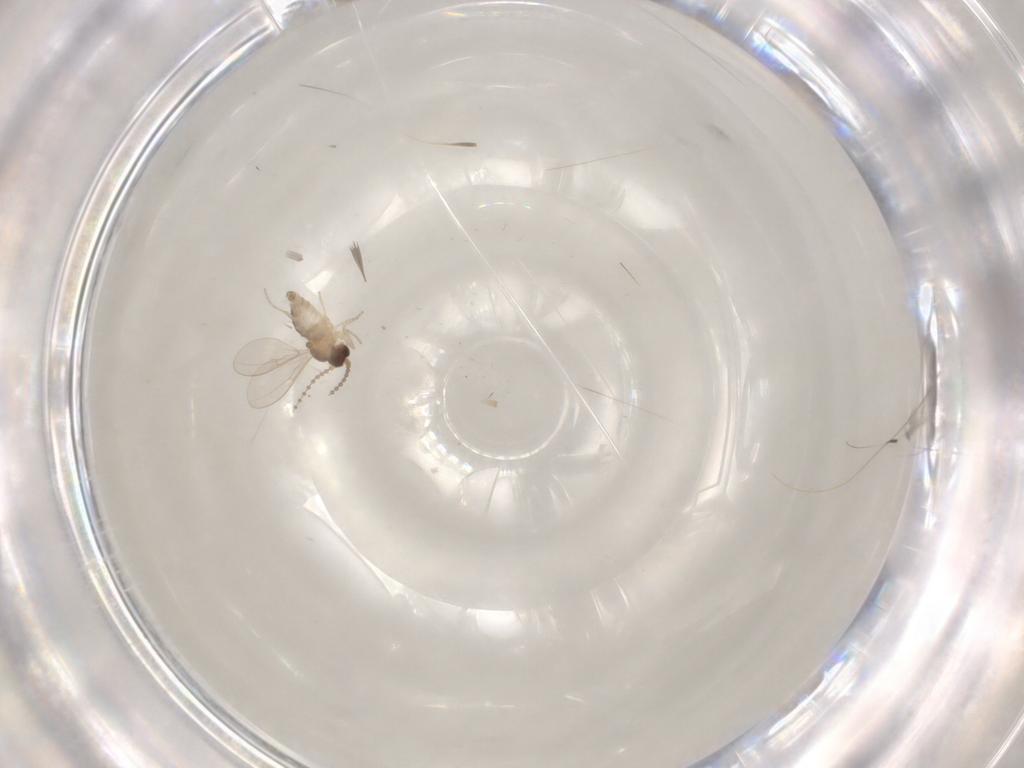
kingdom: Animalia
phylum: Arthropoda
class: Insecta
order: Diptera
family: Cecidomyiidae
